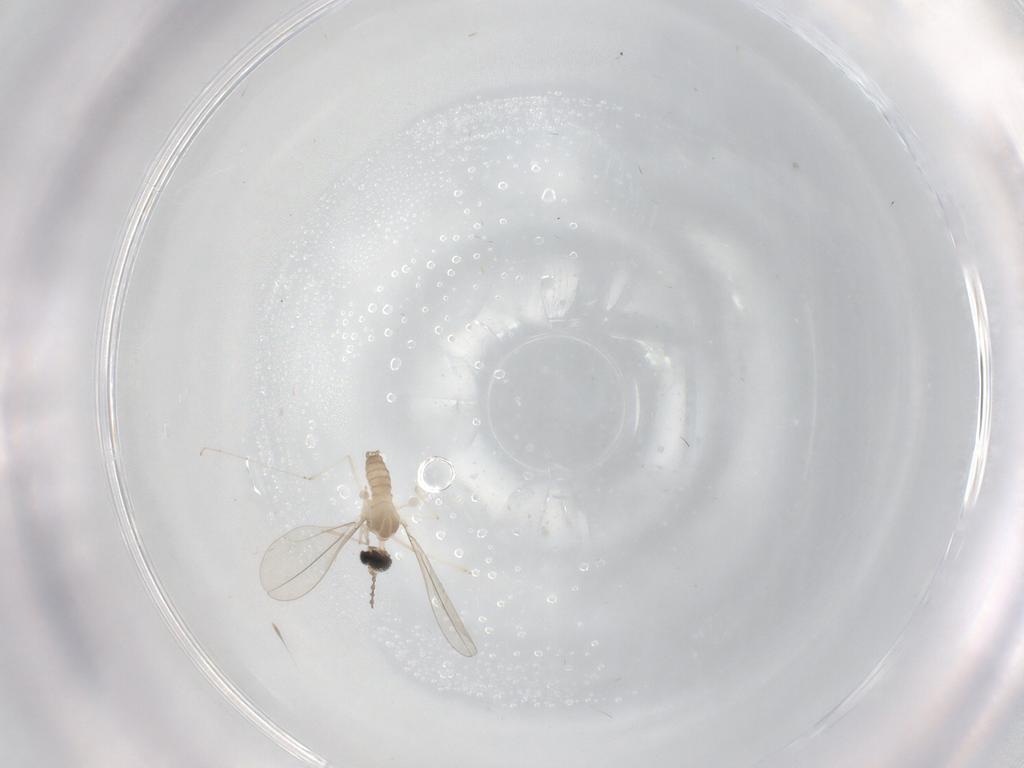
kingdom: Animalia
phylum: Arthropoda
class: Insecta
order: Diptera
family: Cecidomyiidae
